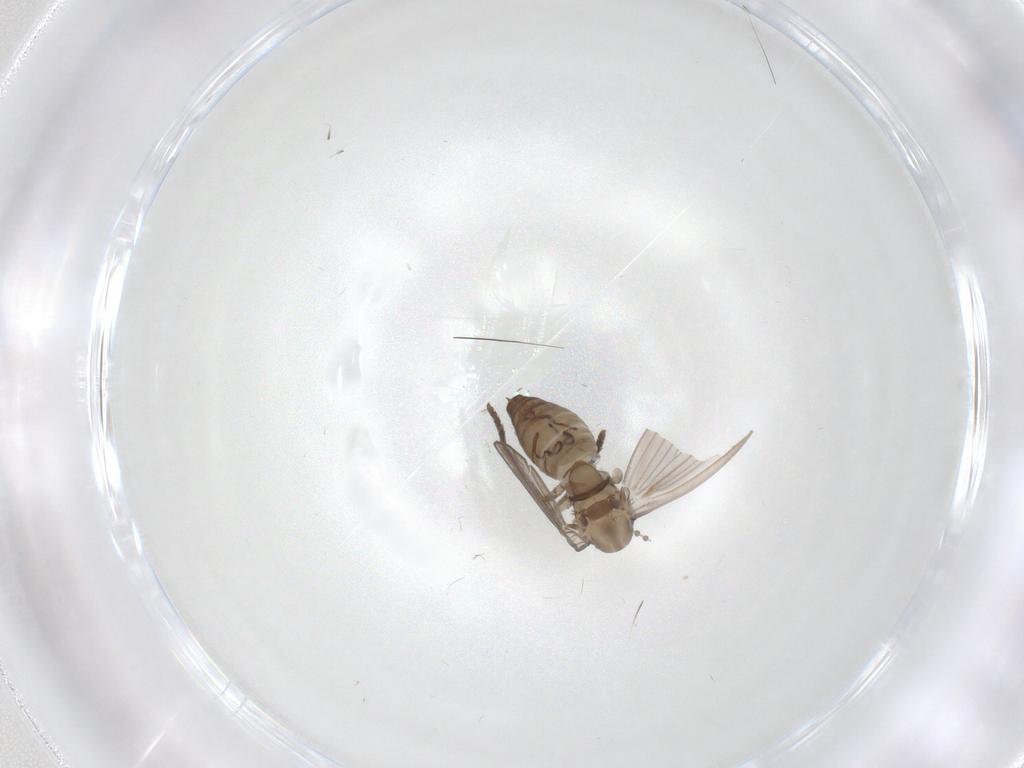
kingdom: Animalia
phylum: Arthropoda
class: Insecta
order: Diptera
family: Psychodidae
